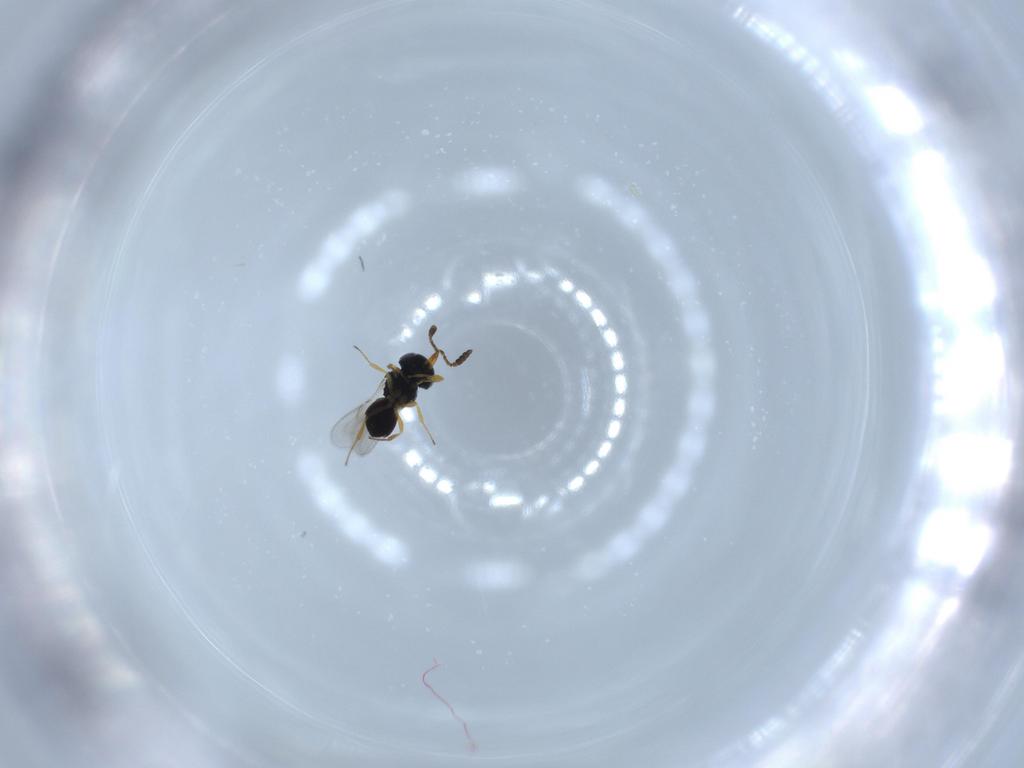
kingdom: Animalia
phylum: Arthropoda
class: Insecta
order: Hymenoptera
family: Scelionidae
